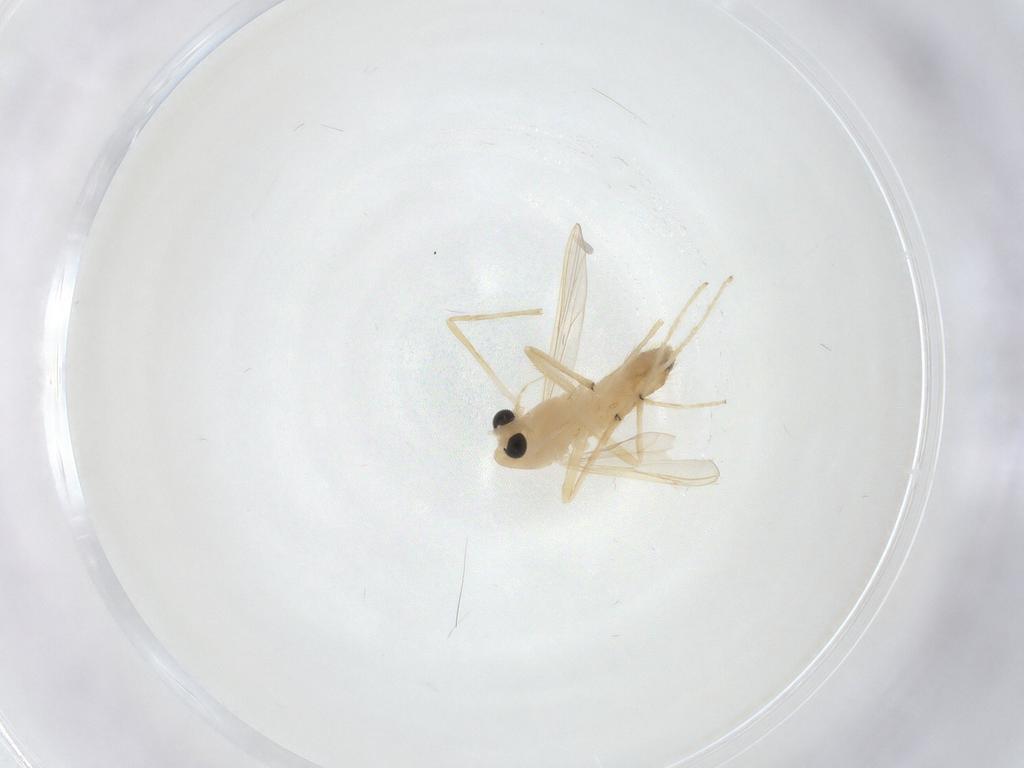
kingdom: Animalia
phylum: Arthropoda
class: Insecta
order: Diptera
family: Chironomidae
